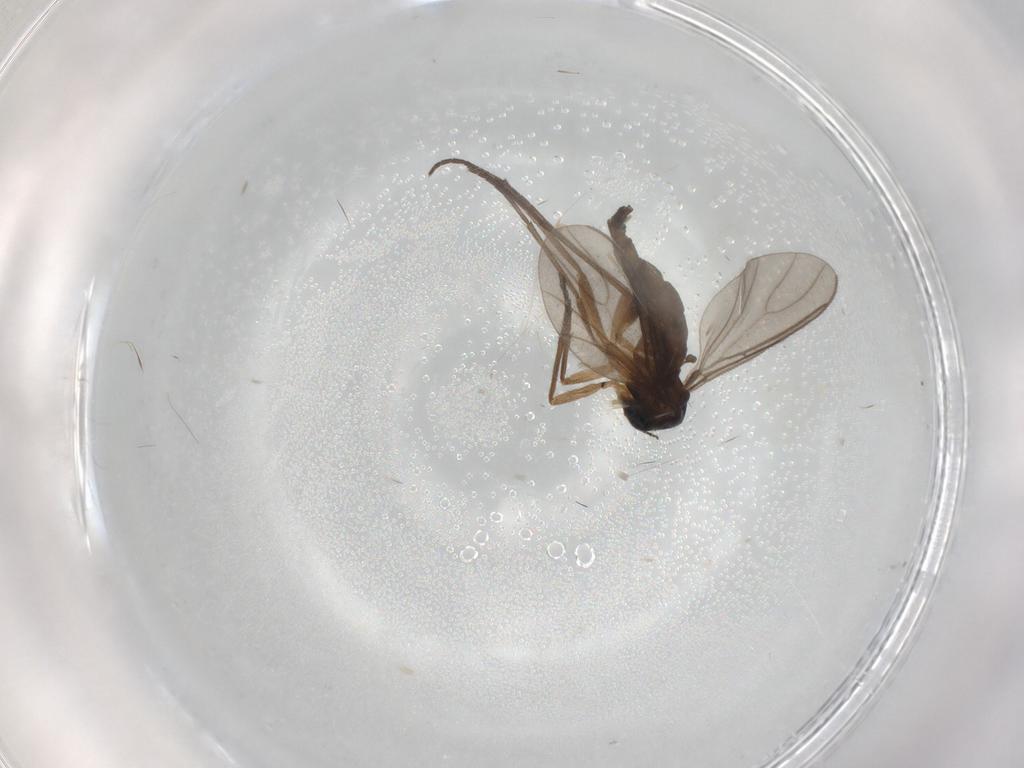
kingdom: Animalia
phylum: Arthropoda
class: Insecta
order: Diptera
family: Sciaridae
